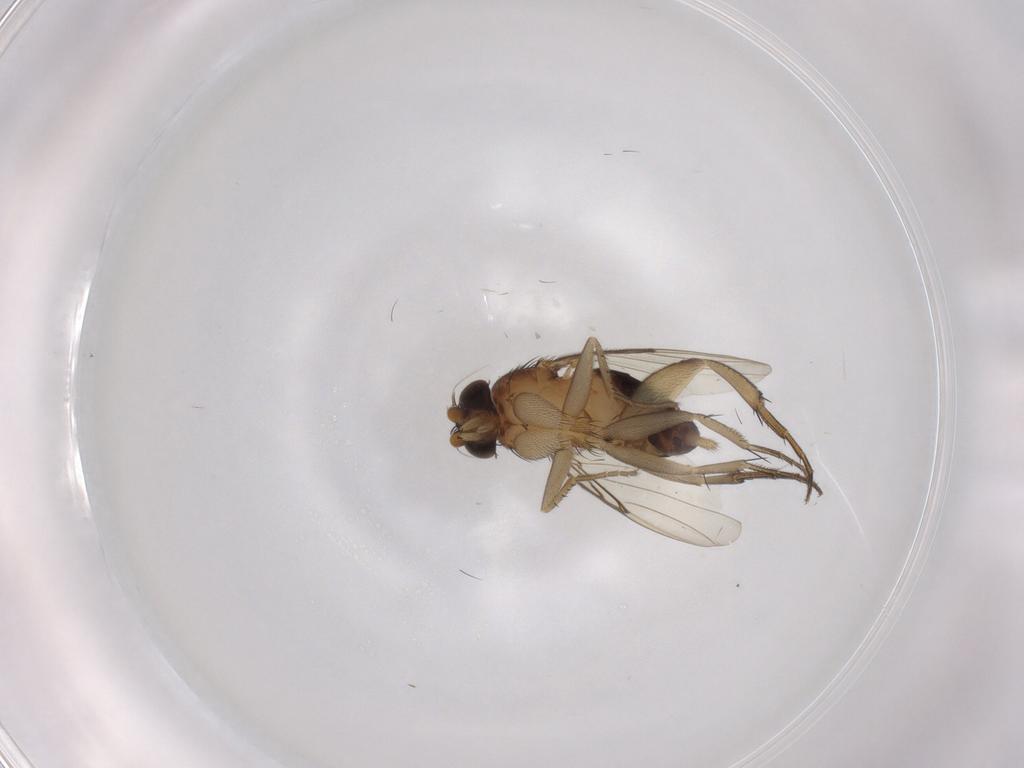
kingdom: Animalia
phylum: Arthropoda
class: Insecta
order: Diptera
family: Phoridae
